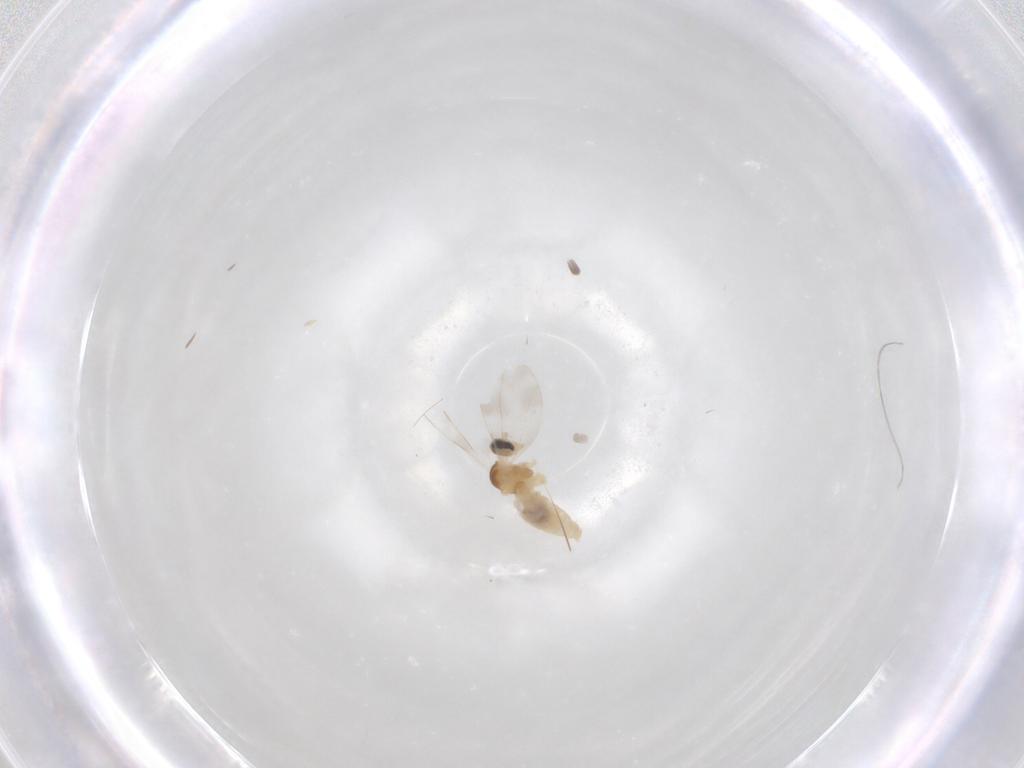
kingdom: Animalia
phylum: Arthropoda
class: Insecta
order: Diptera
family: Cecidomyiidae
